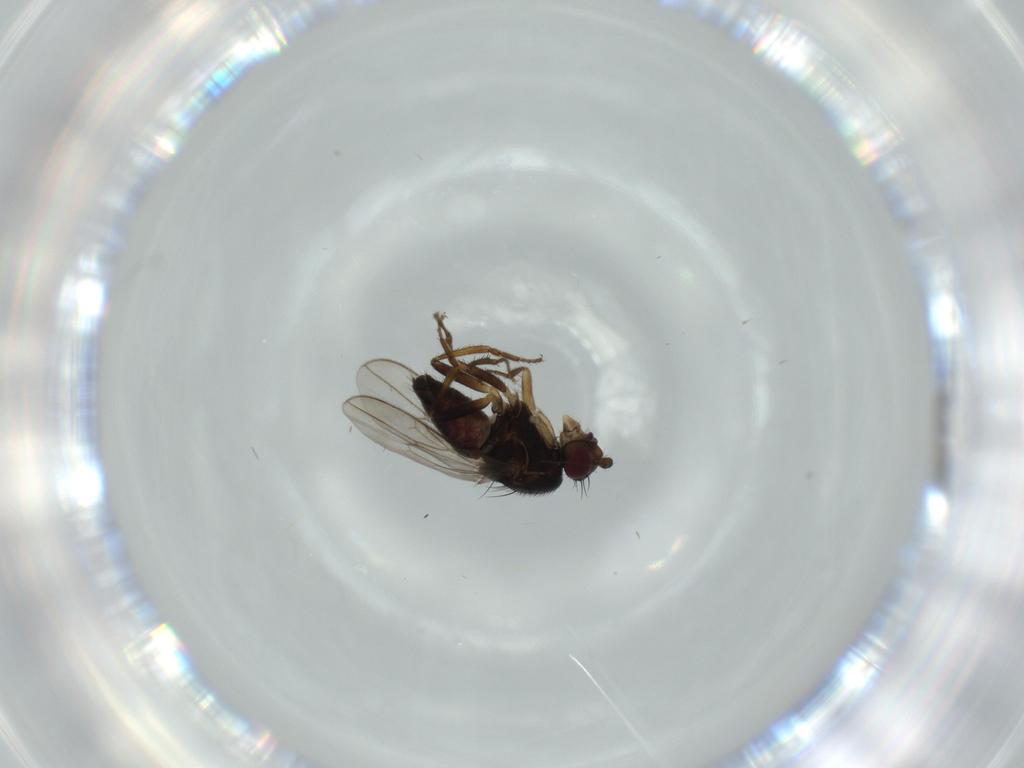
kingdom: Animalia
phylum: Arthropoda
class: Insecta
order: Diptera
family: Sphaeroceridae
